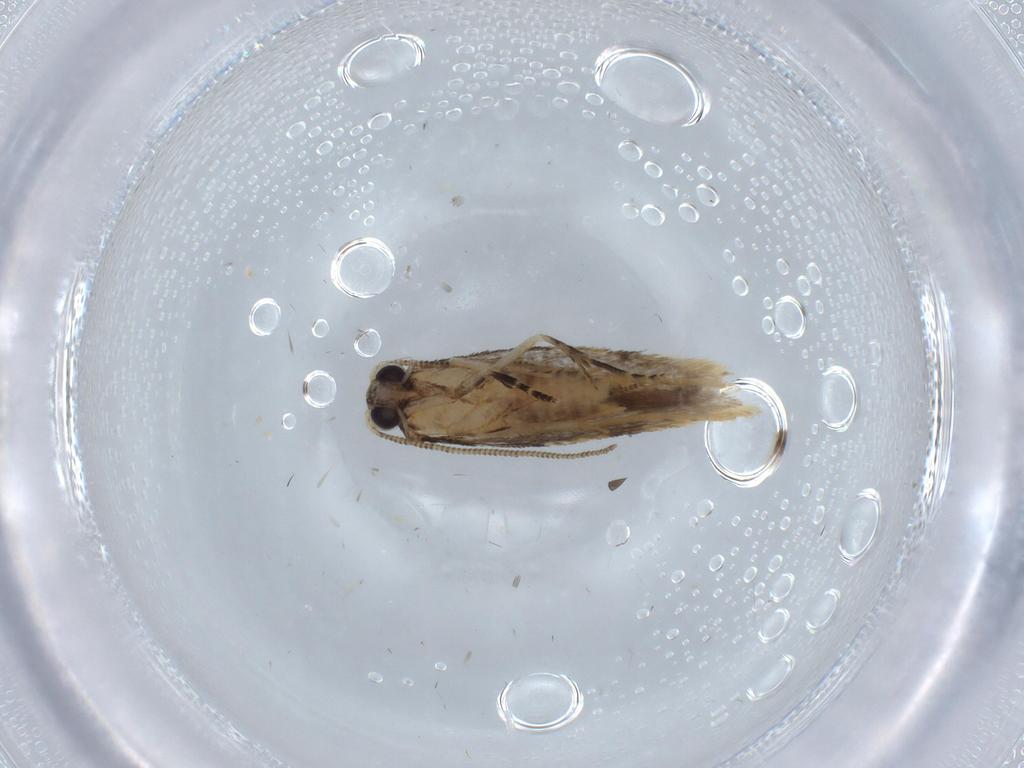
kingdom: Animalia
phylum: Arthropoda
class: Insecta
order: Lepidoptera
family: Tineidae
